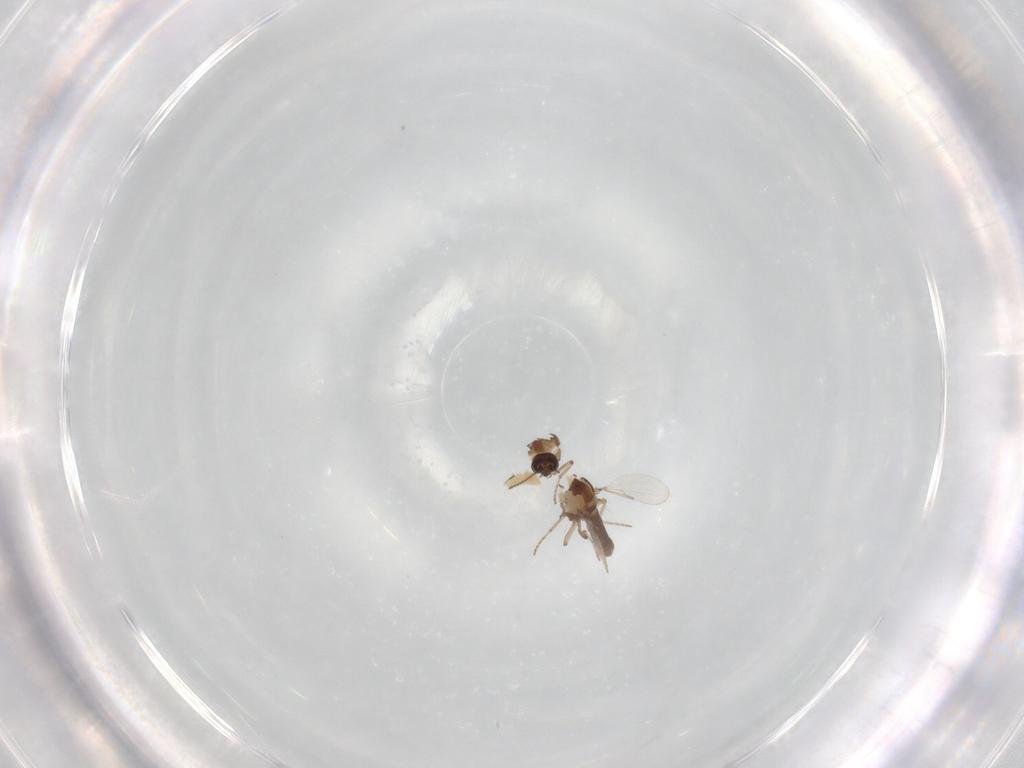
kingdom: Animalia
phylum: Arthropoda
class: Insecta
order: Diptera
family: Ceratopogonidae
